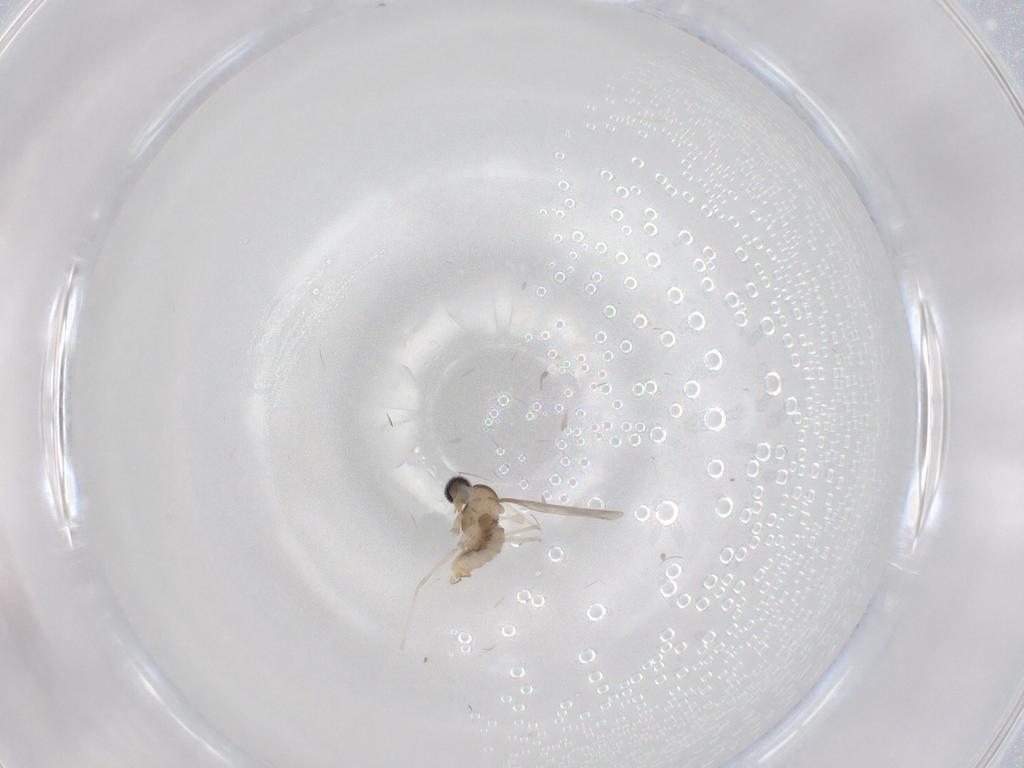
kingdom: Animalia
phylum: Arthropoda
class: Insecta
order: Diptera
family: Cecidomyiidae
